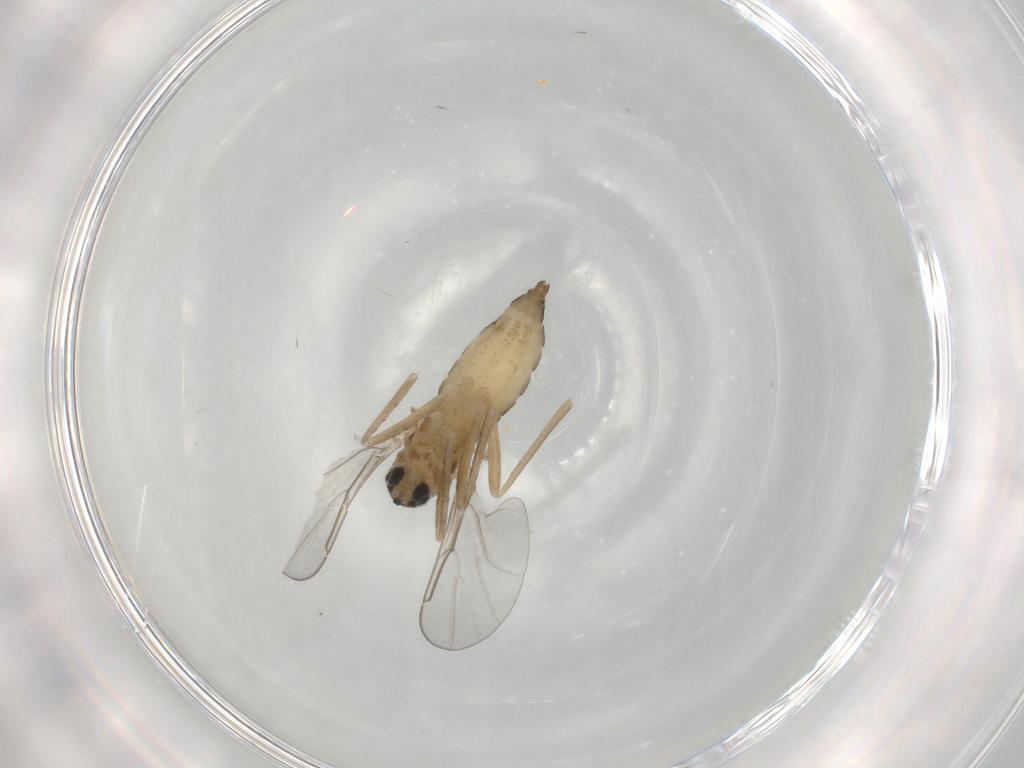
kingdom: Animalia
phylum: Arthropoda
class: Insecta
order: Diptera
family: Cecidomyiidae
